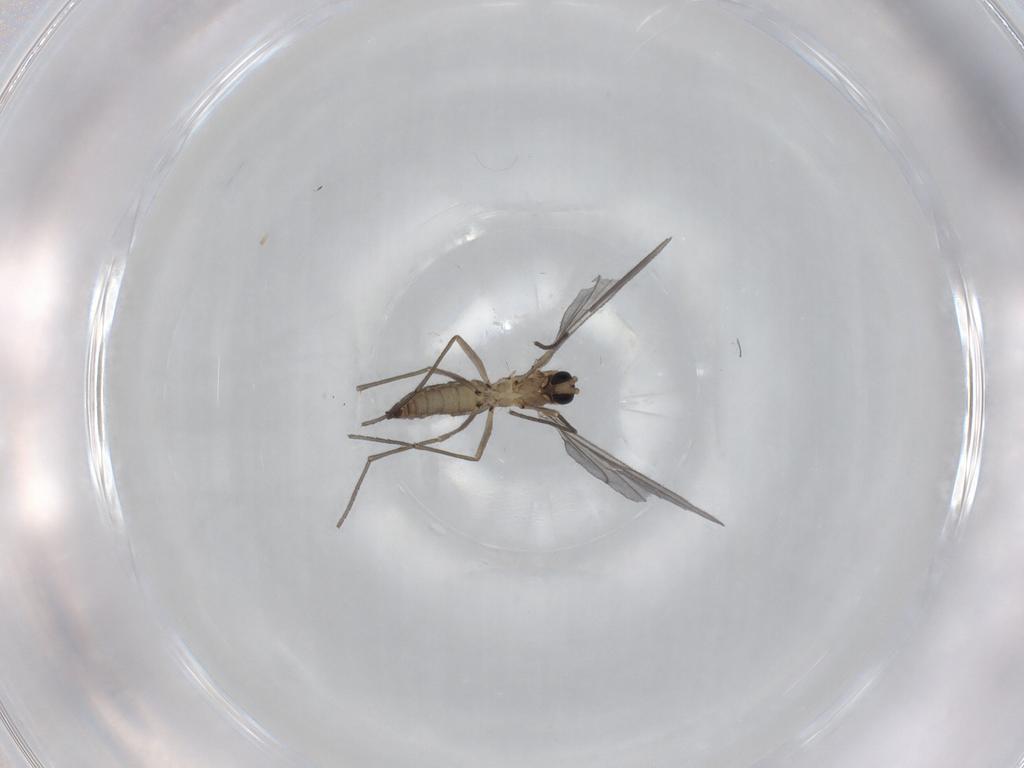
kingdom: Animalia
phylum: Arthropoda
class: Insecta
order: Diptera
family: Sciaridae
